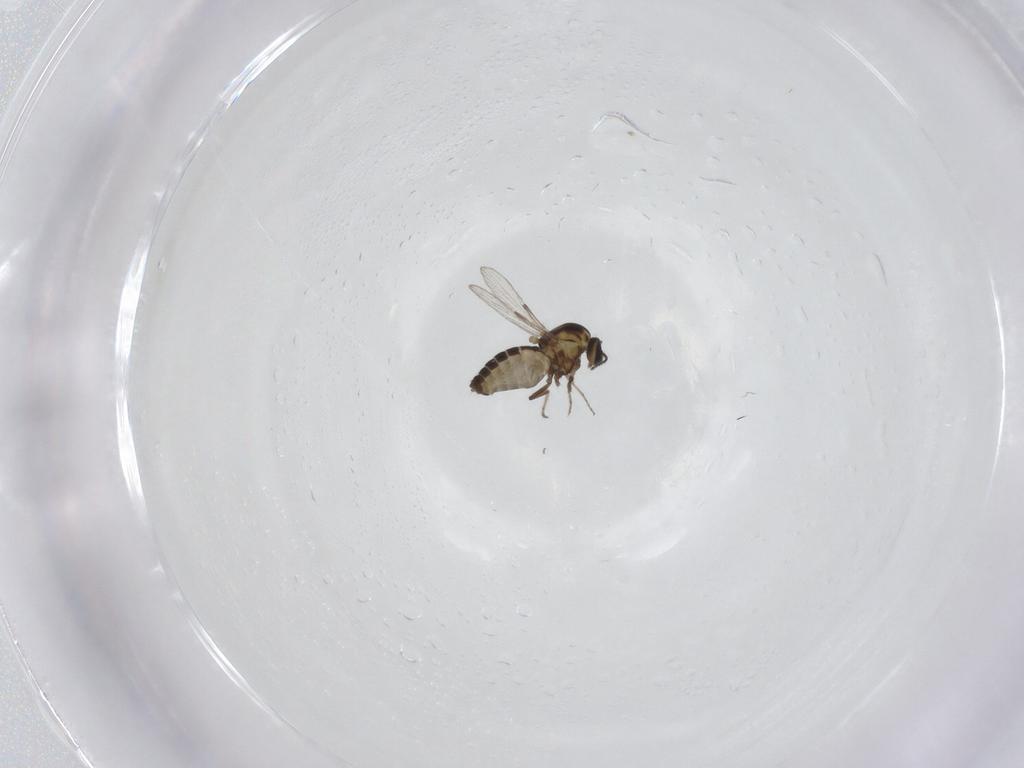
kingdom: Animalia
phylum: Arthropoda
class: Insecta
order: Diptera
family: Ceratopogonidae
